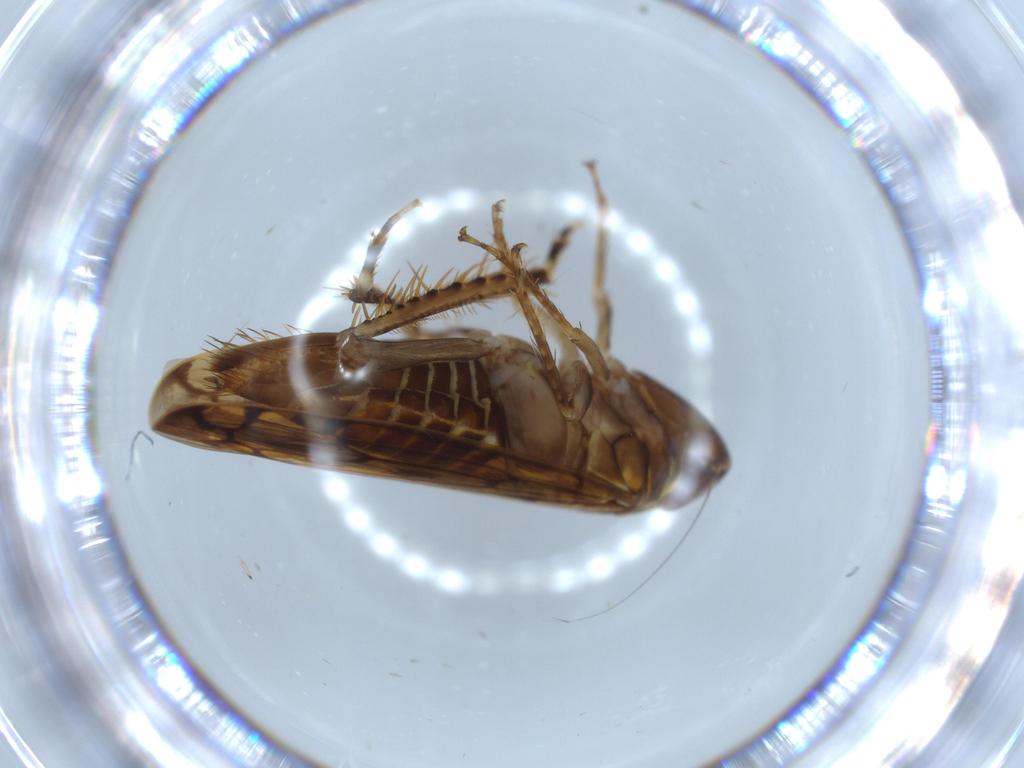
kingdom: Animalia
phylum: Arthropoda
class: Insecta
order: Hemiptera
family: Cicadellidae
